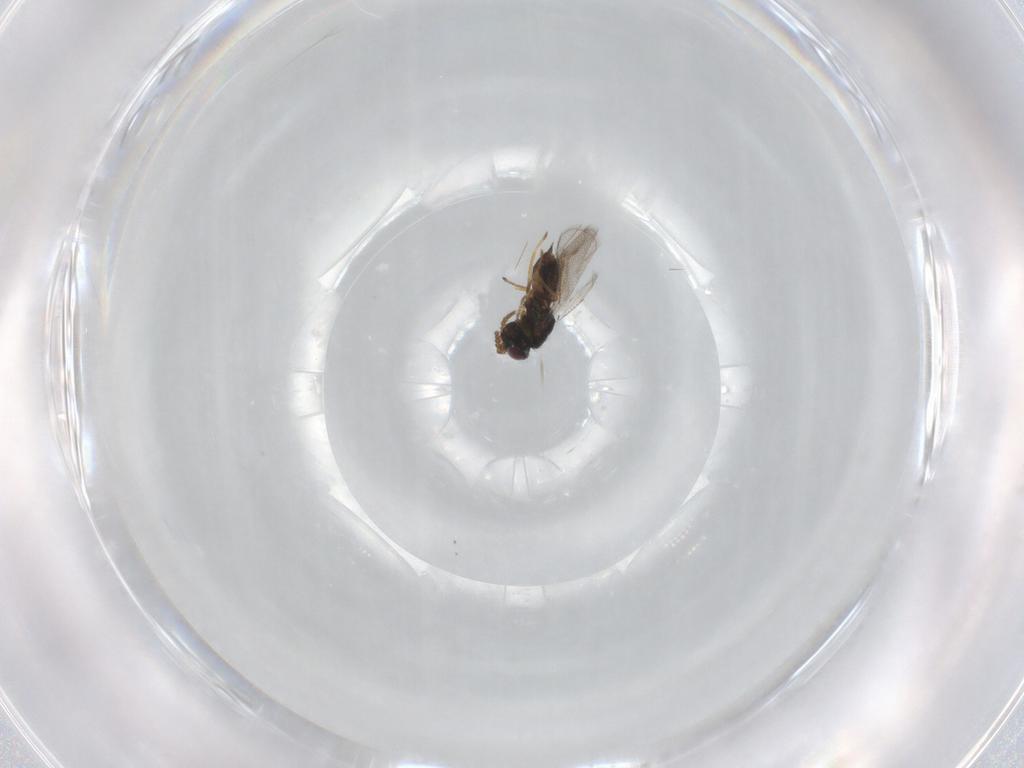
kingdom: Animalia
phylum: Arthropoda
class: Insecta
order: Hymenoptera
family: Pirenidae
